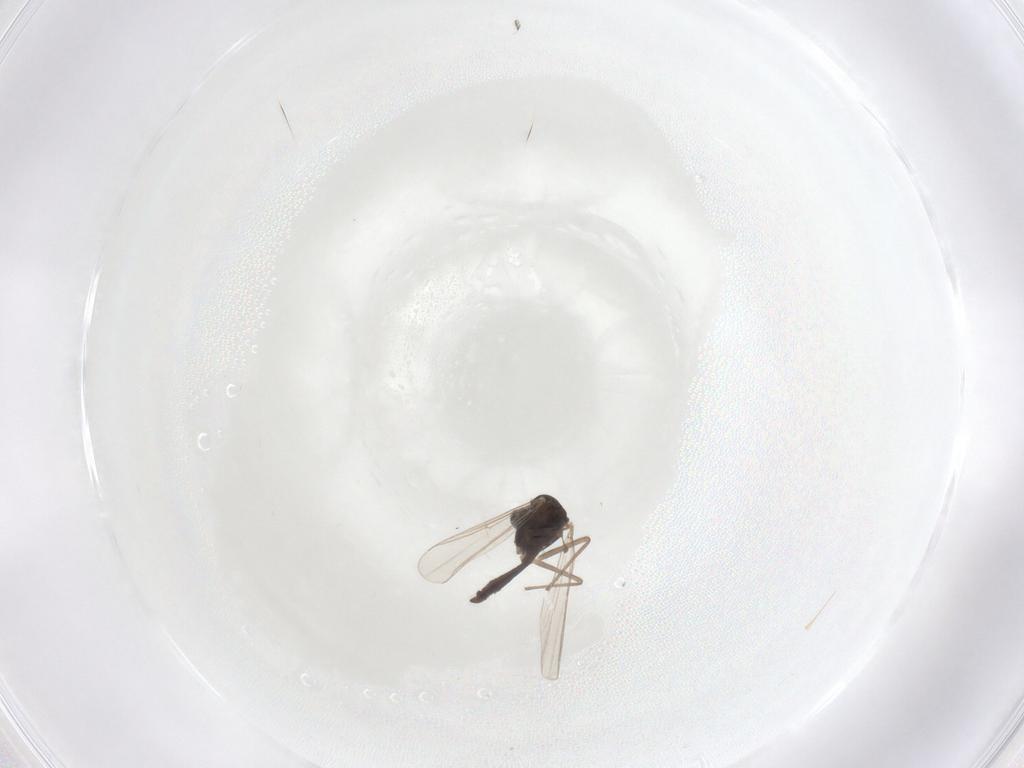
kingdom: Animalia
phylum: Arthropoda
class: Insecta
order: Diptera
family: Chironomidae
